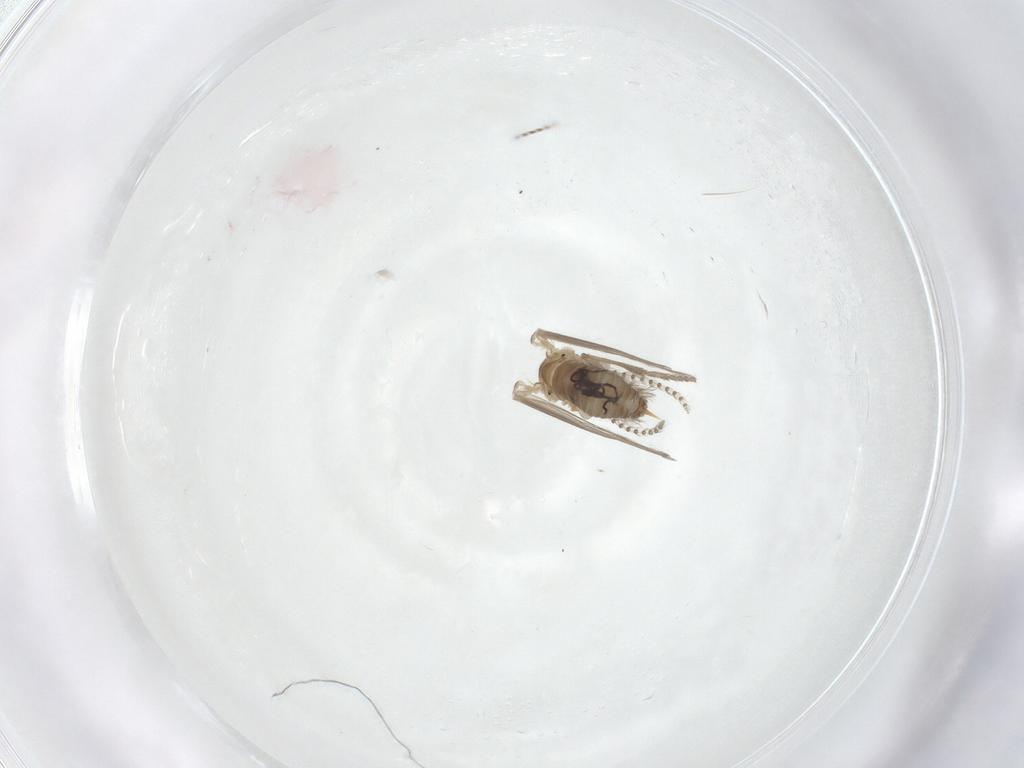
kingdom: Animalia
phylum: Arthropoda
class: Insecta
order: Diptera
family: Psychodidae
